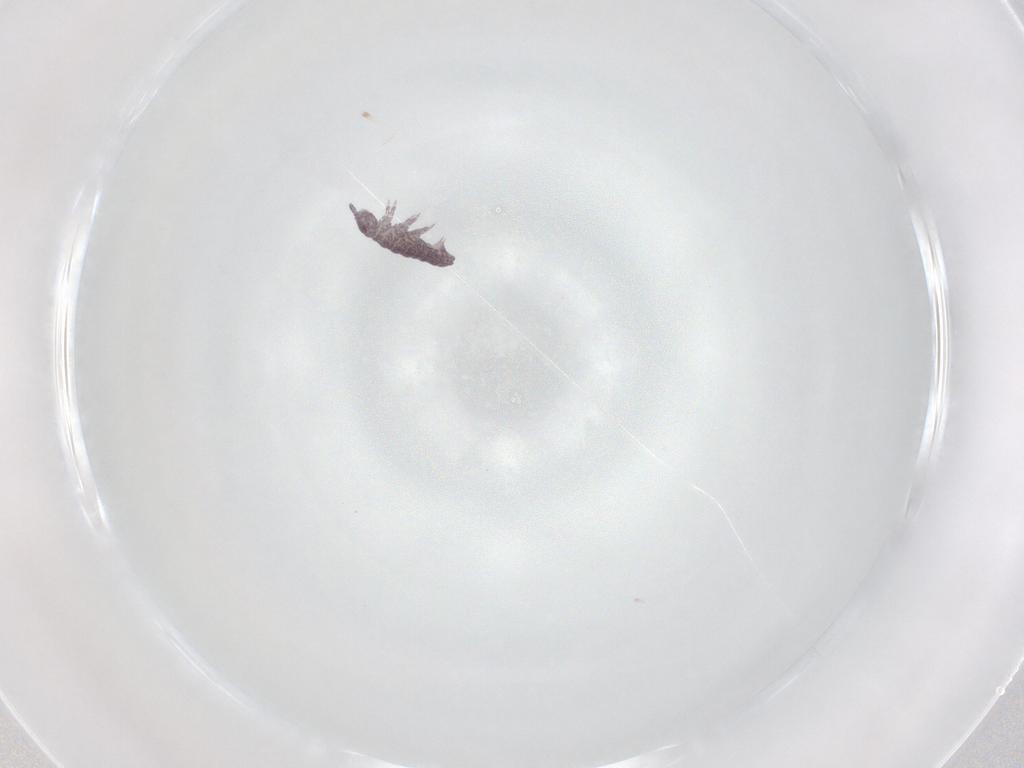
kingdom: Animalia
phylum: Arthropoda
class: Collembola
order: Poduromorpha
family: Brachystomellidae
